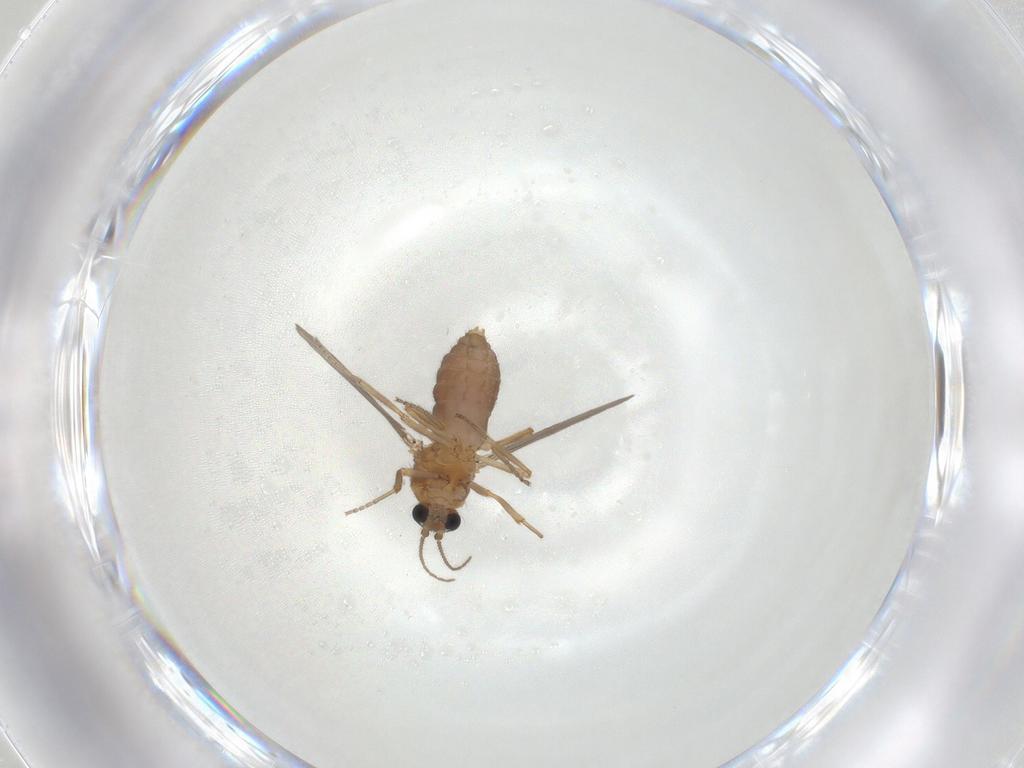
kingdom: Animalia
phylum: Arthropoda
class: Insecta
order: Diptera
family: Ceratopogonidae
